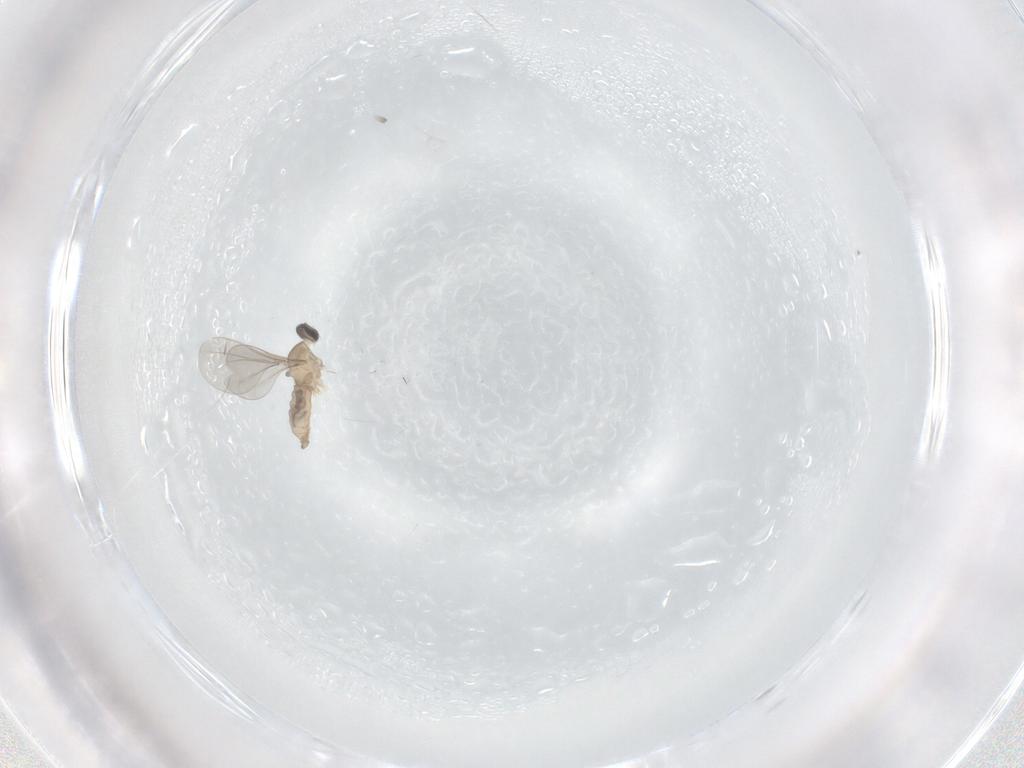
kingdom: Animalia
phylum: Arthropoda
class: Insecta
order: Diptera
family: Cecidomyiidae
